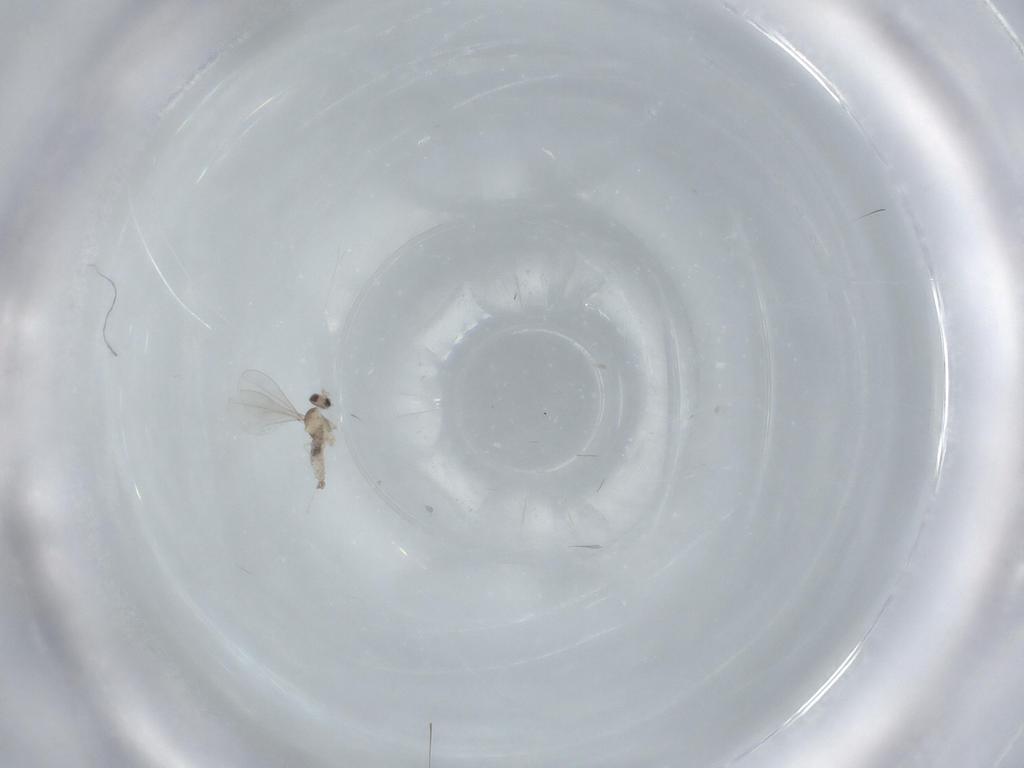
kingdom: Animalia
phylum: Arthropoda
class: Insecta
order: Diptera
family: Cecidomyiidae
